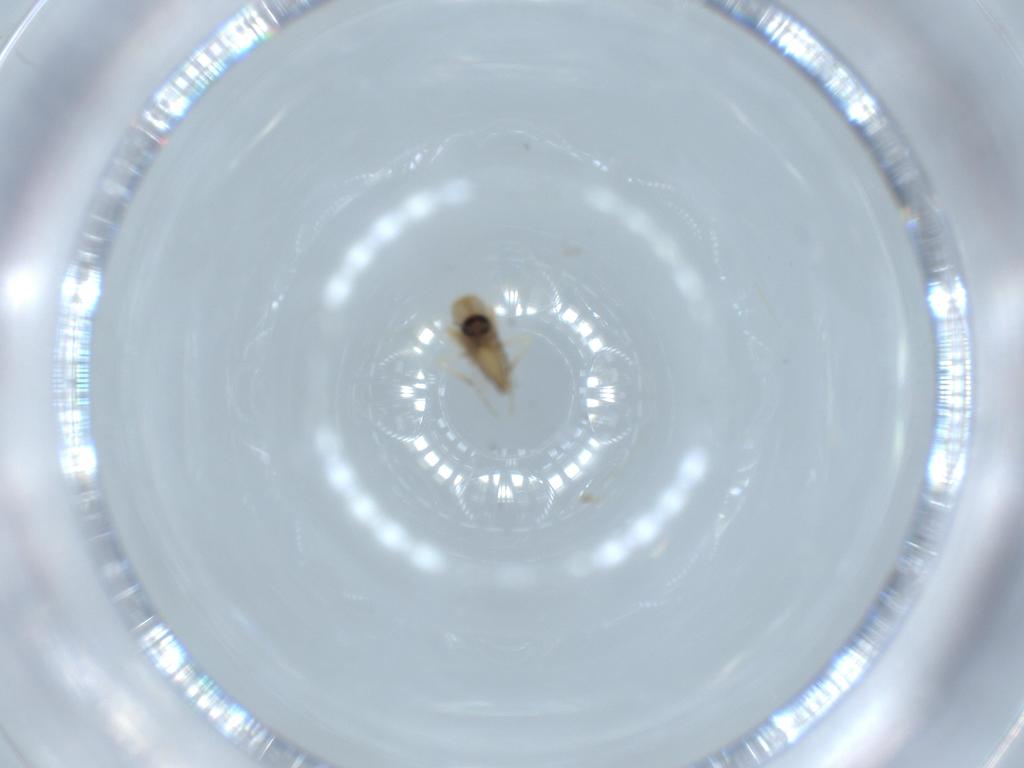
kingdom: Animalia
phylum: Arthropoda
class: Insecta
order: Diptera
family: Ceratopogonidae
